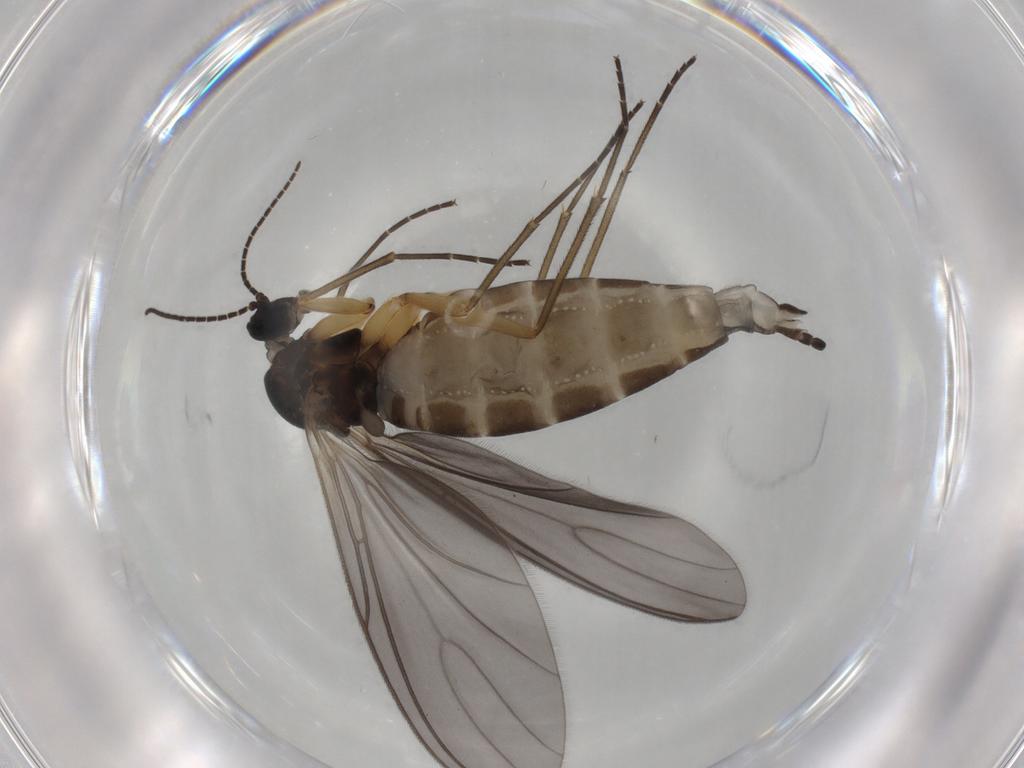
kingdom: Animalia
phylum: Arthropoda
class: Insecta
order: Diptera
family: Sciaridae
